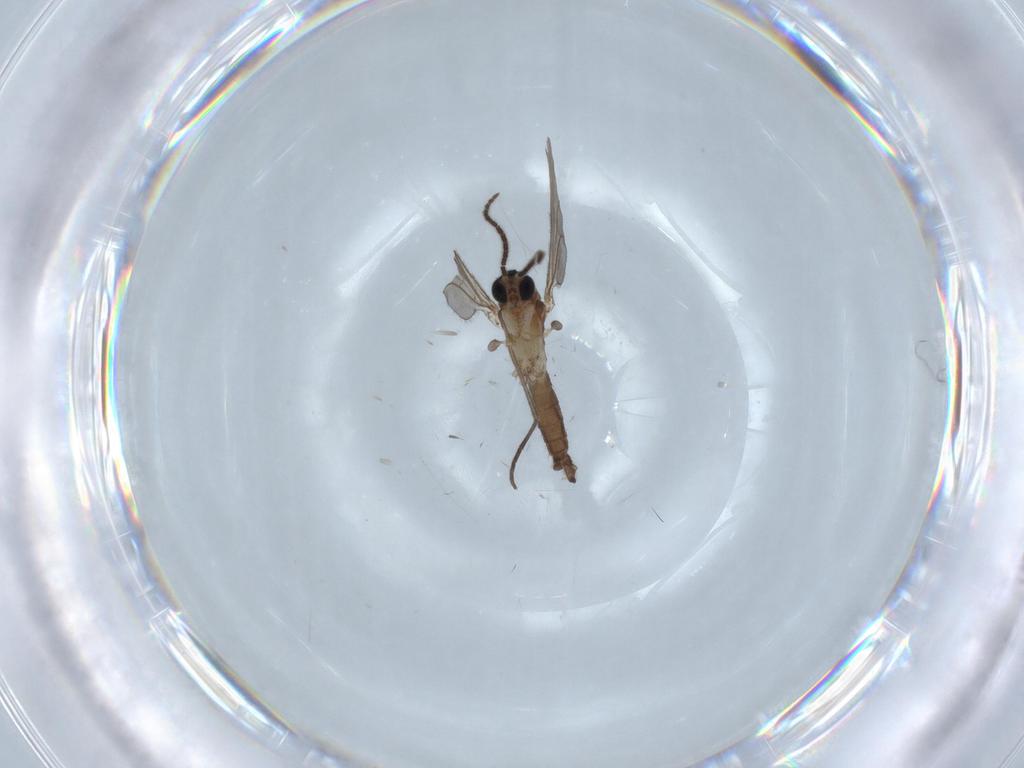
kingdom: Animalia
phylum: Arthropoda
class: Insecta
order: Diptera
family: Sciaridae
